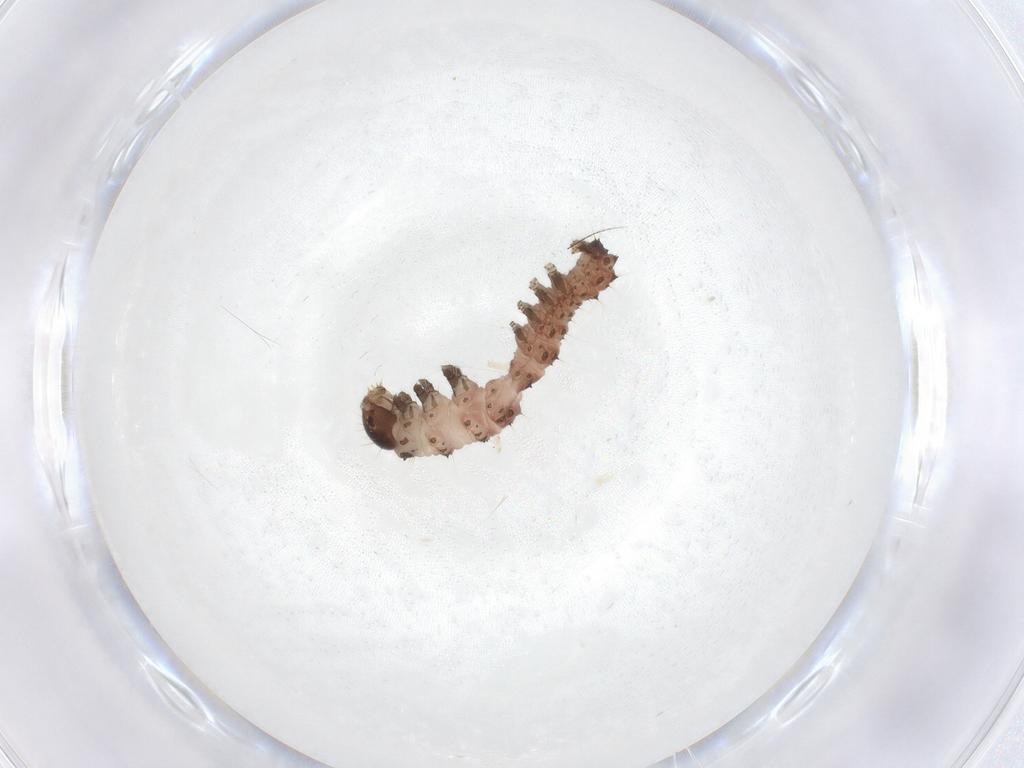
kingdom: Animalia
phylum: Arthropoda
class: Insecta
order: Lepidoptera
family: Erebidae
